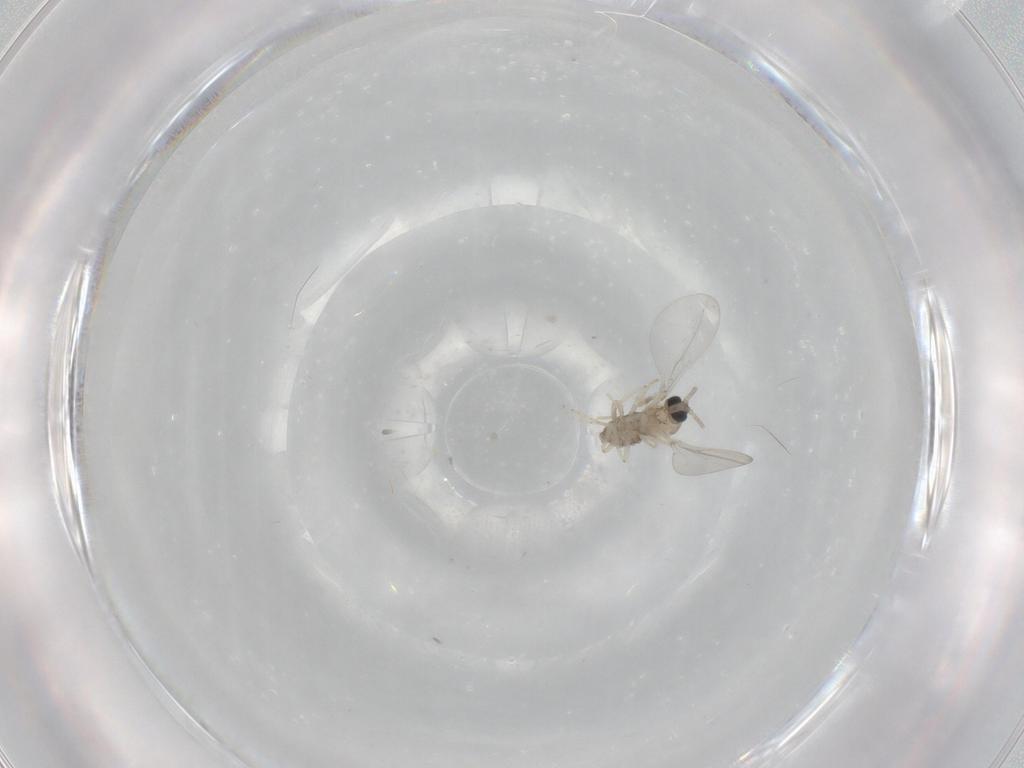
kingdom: Animalia
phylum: Arthropoda
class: Insecta
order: Diptera
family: Cecidomyiidae
